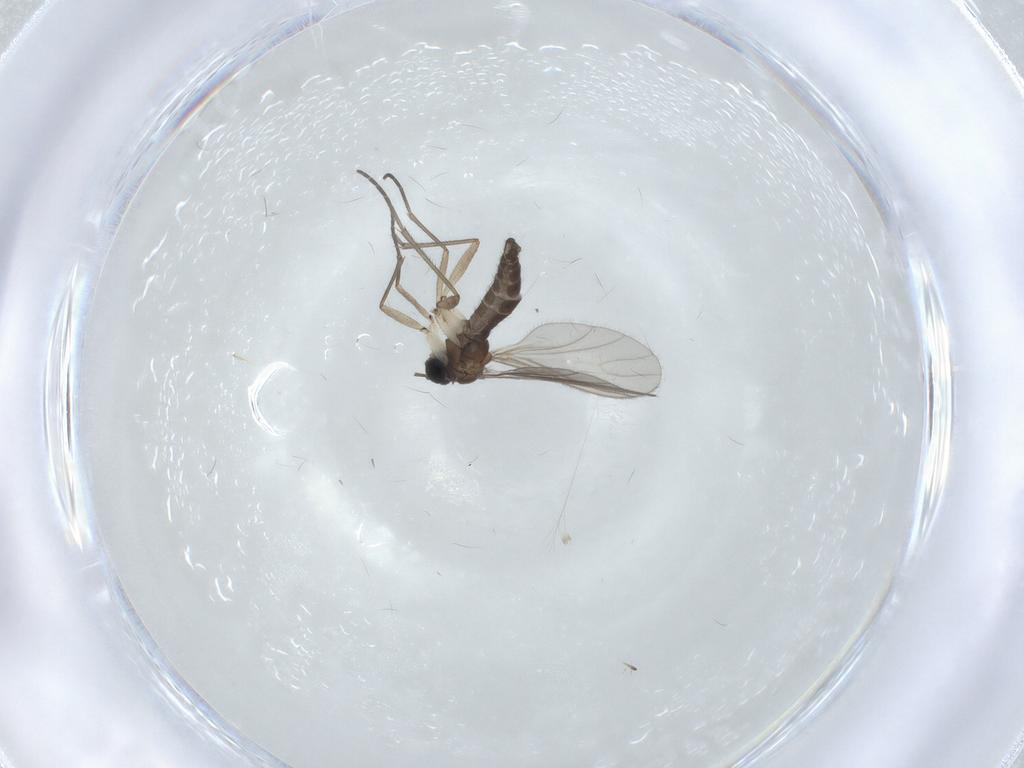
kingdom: Animalia
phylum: Arthropoda
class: Insecta
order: Diptera
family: Sciaridae
